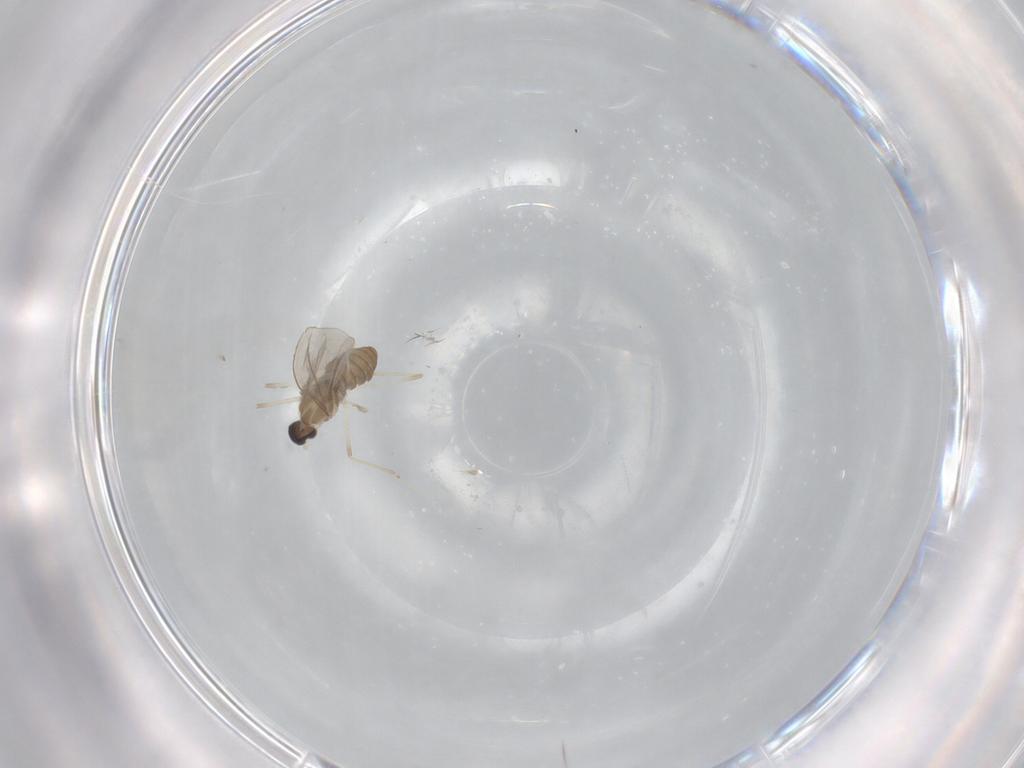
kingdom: Animalia
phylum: Arthropoda
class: Insecta
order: Diptera
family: Cecidomyiidae
